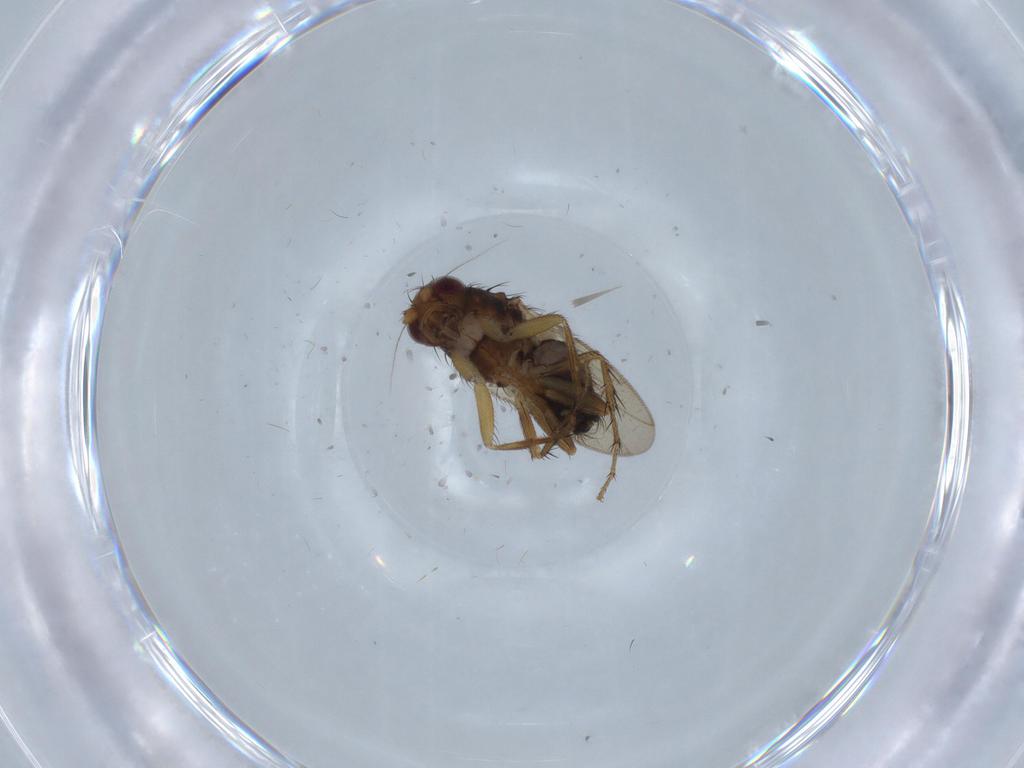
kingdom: Animalia
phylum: Arthropoda
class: Insecta
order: Diptera
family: Sphaeroceridae
